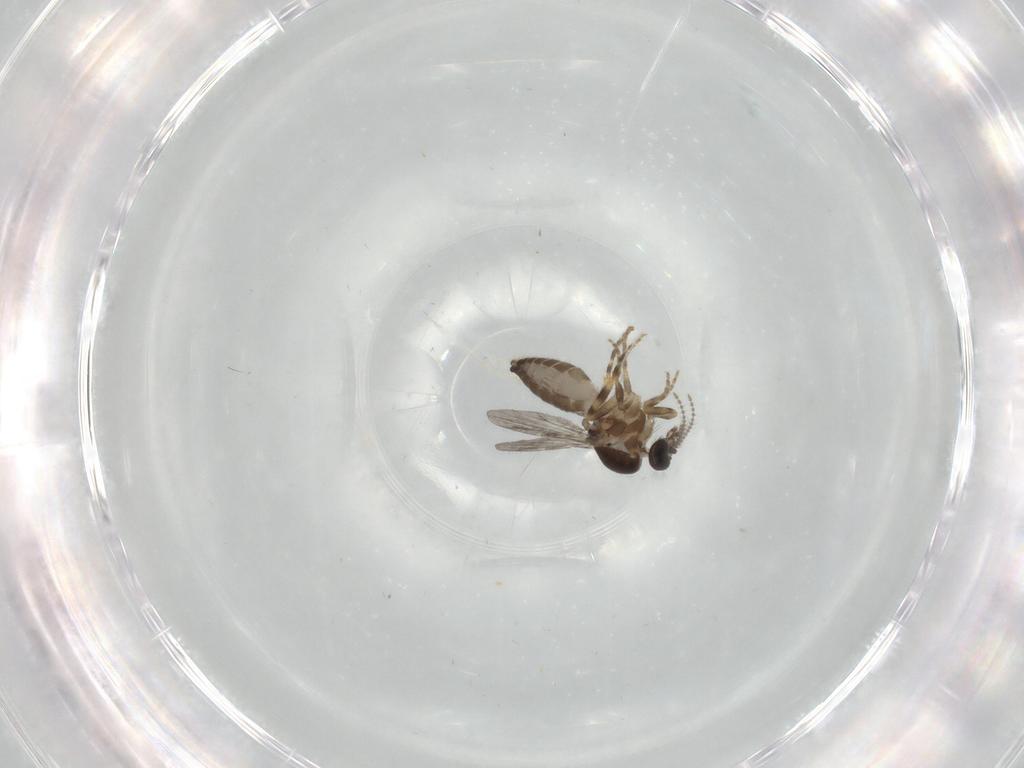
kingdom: Animalia
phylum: Arthropoda
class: Insecta
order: Diptera
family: Ceratopogonidae
